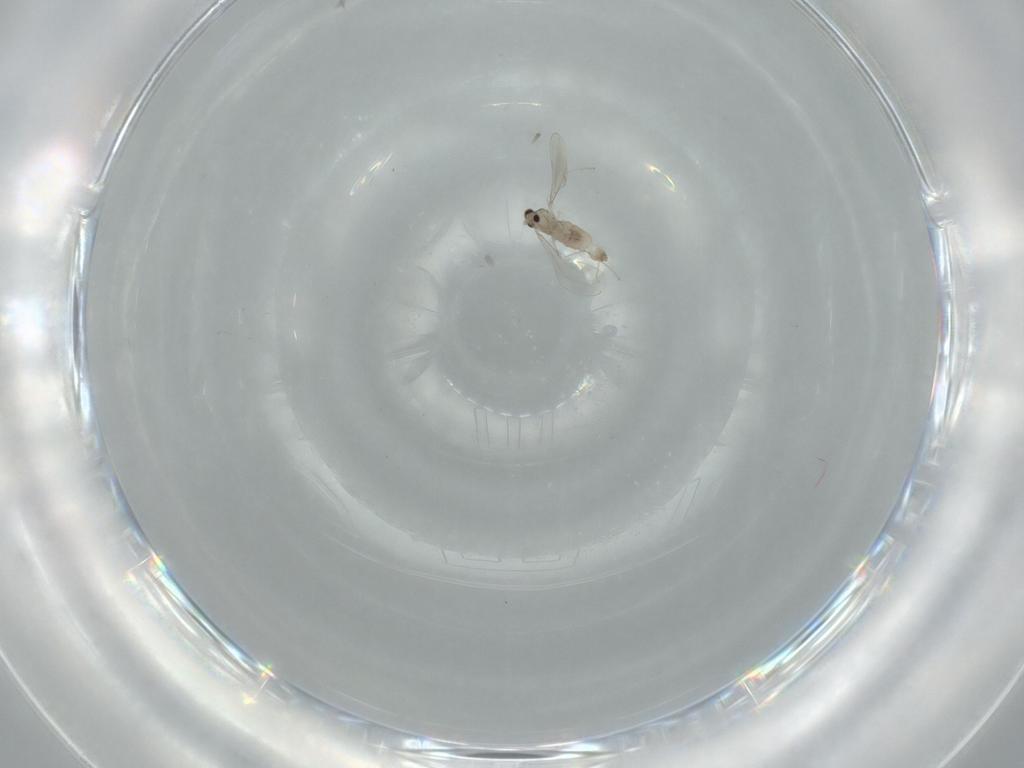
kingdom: Animalia
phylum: Arthropoda
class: Insecta
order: Diptera
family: Cecidomyiidae
